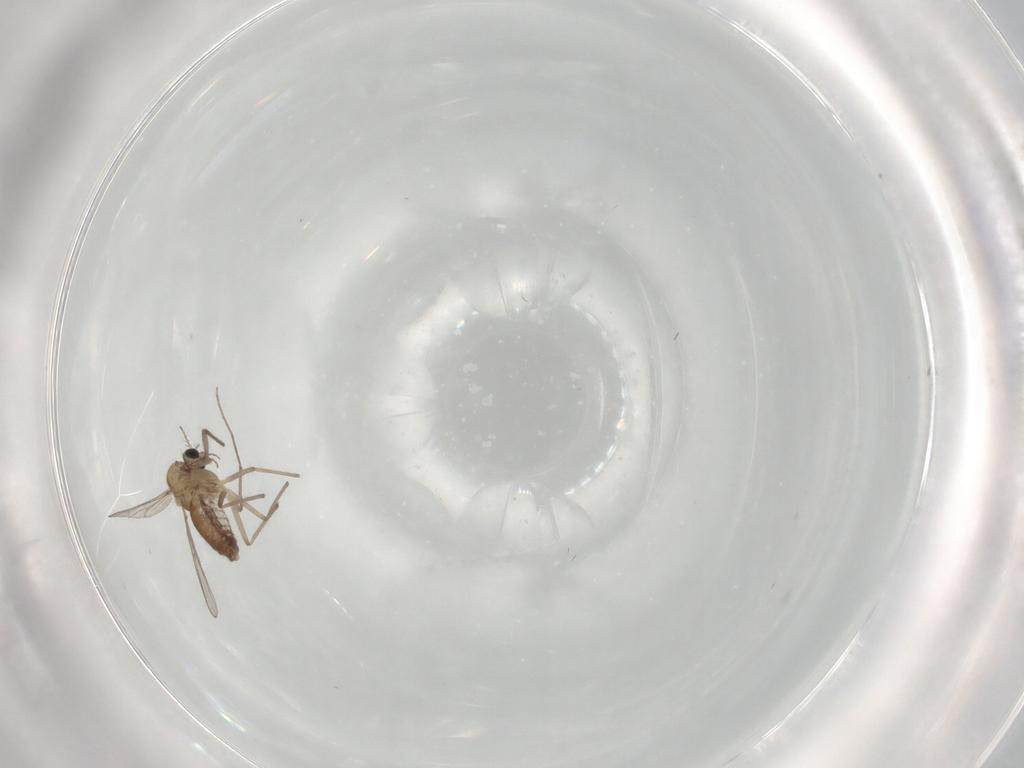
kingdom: Animalia
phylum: Arthropoda
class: Insecta
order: Diptera
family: Chironomidae
